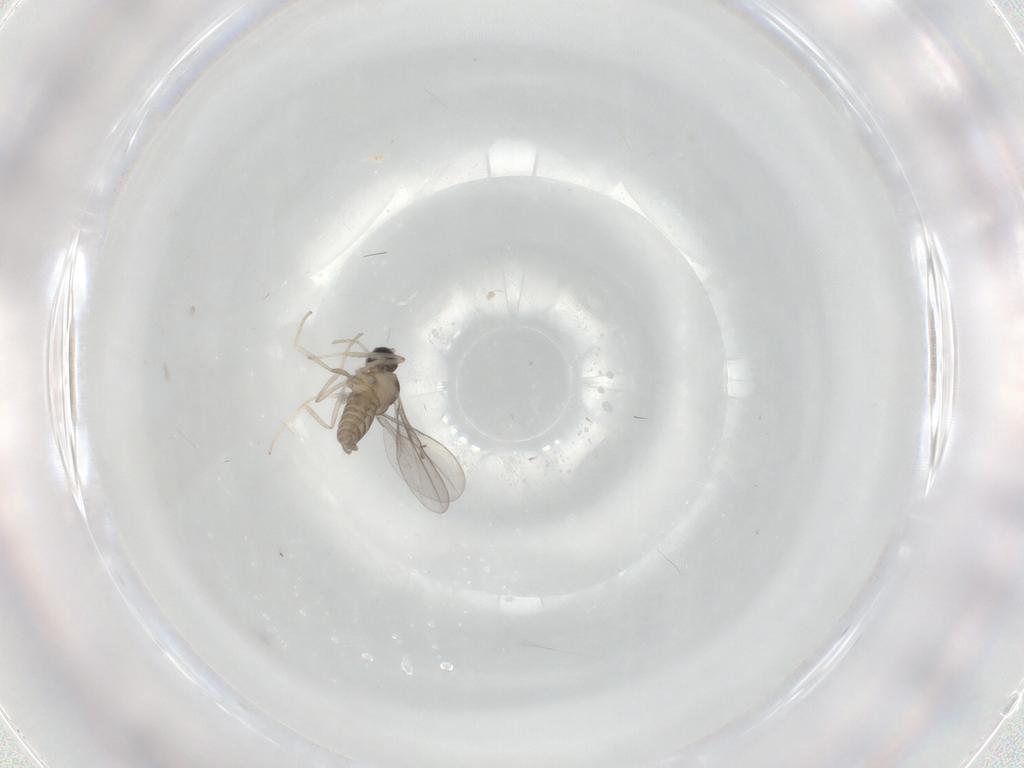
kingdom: Animalia
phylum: Arthropoda
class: Insecta
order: Diptera
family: Cecidomyiidae
